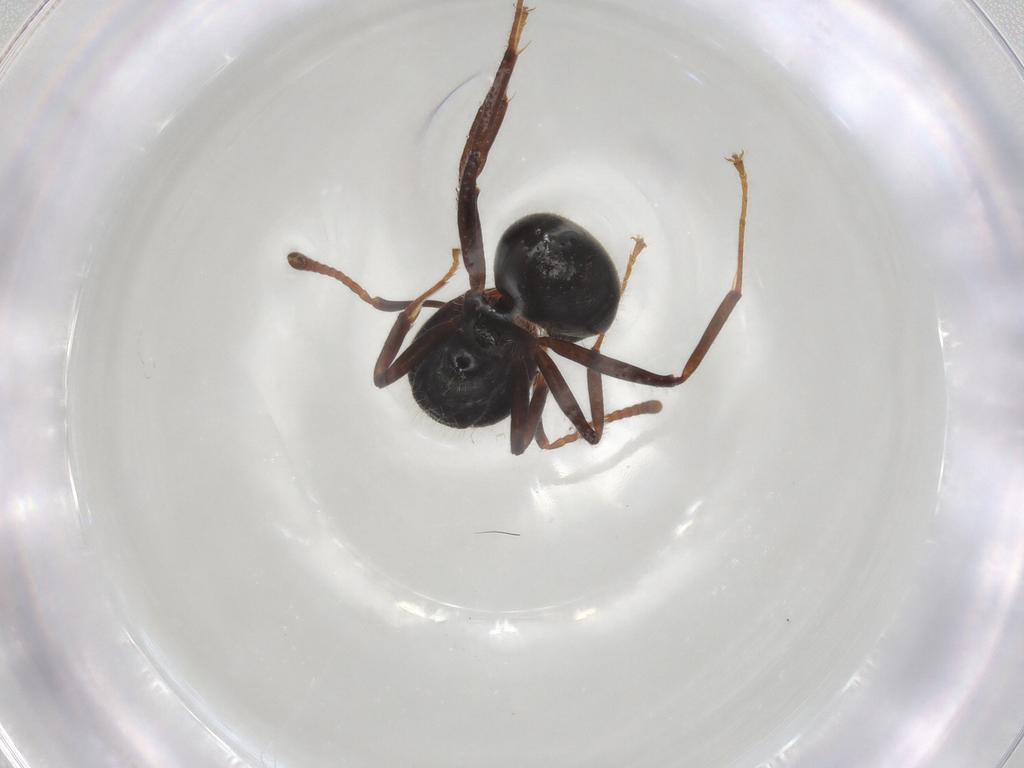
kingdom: Animalia
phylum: Arthropoda
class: Insecta
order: Hymenoptera
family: Formicidae
